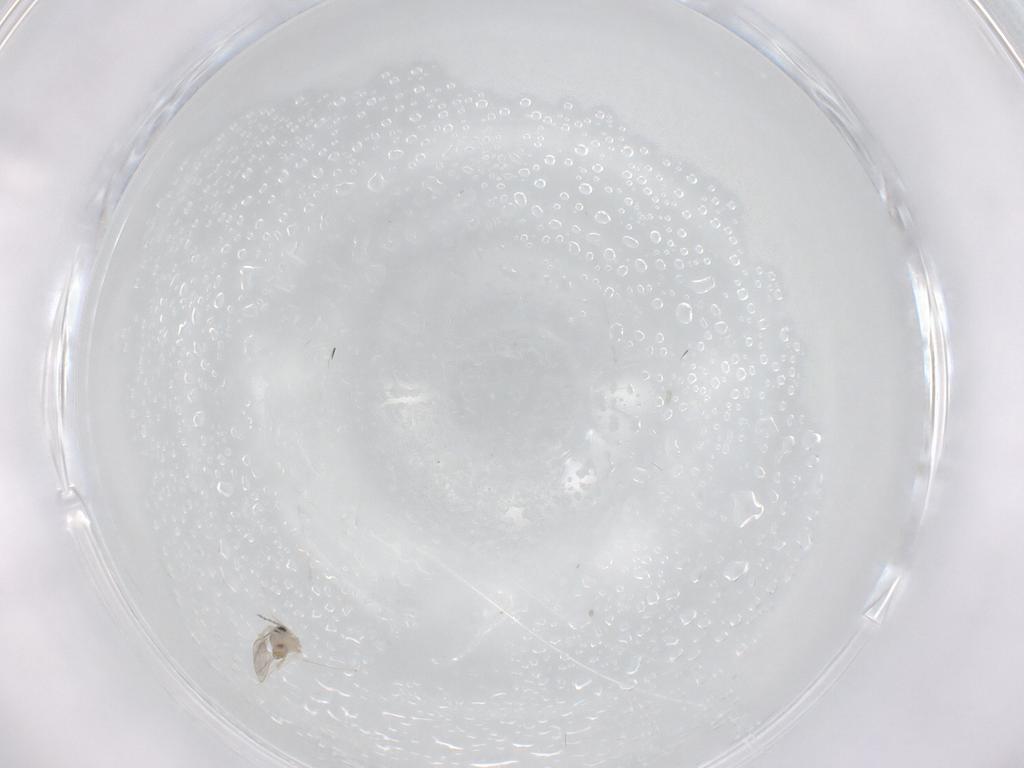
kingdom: Animalia
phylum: Arthropoda
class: Insecta
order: Diptera
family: Cecidomyiidae
